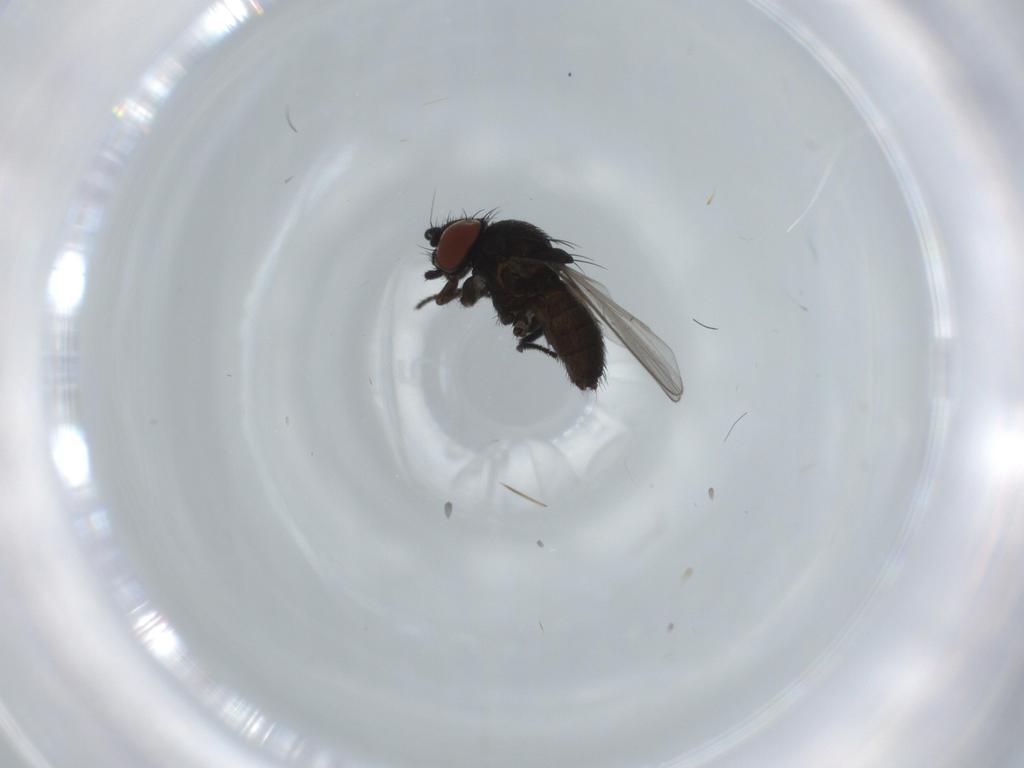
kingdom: Animalia
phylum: Arthropoda
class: Insecta
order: Diptera
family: Milichiidae
